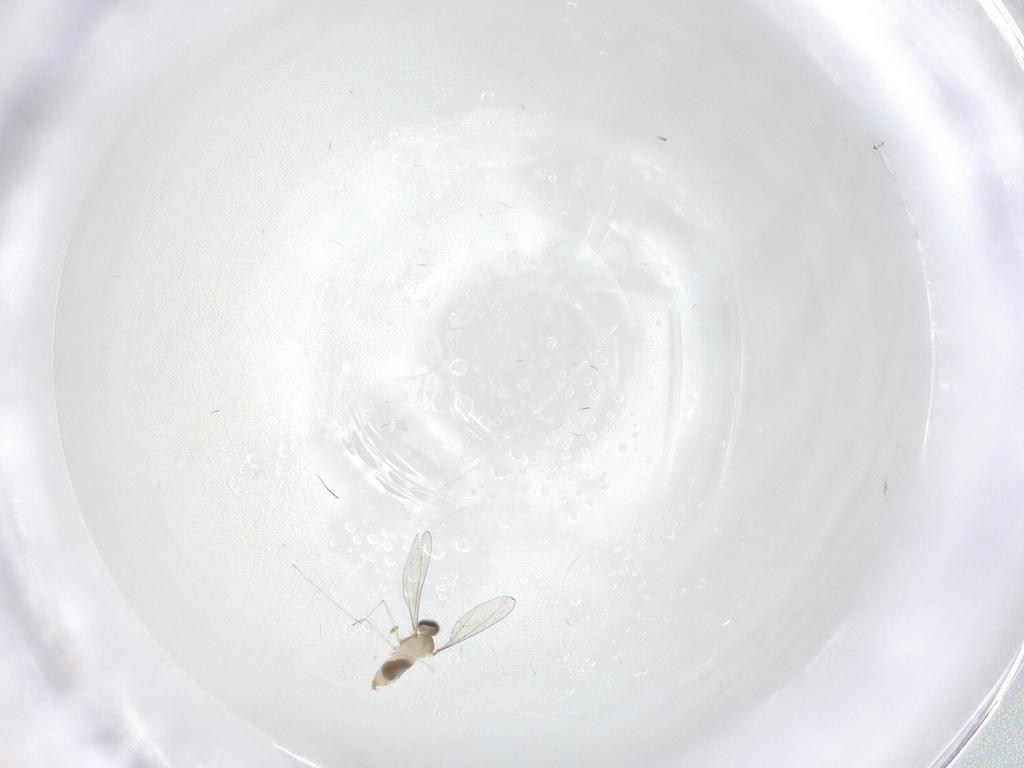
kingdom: Animalia
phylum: Arthropoda
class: Insecta
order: Diptera
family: Cecidomyiidae
